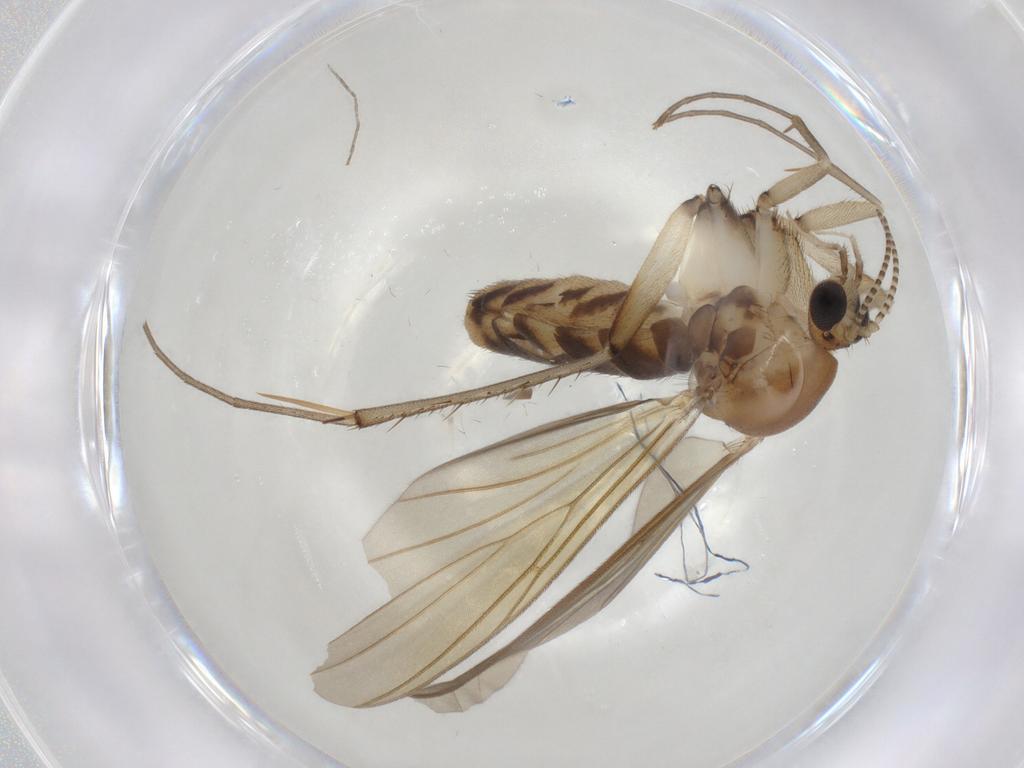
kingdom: Animalia
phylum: Arthropoda
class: Insecta
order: Diptera
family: Mycetophilidae
